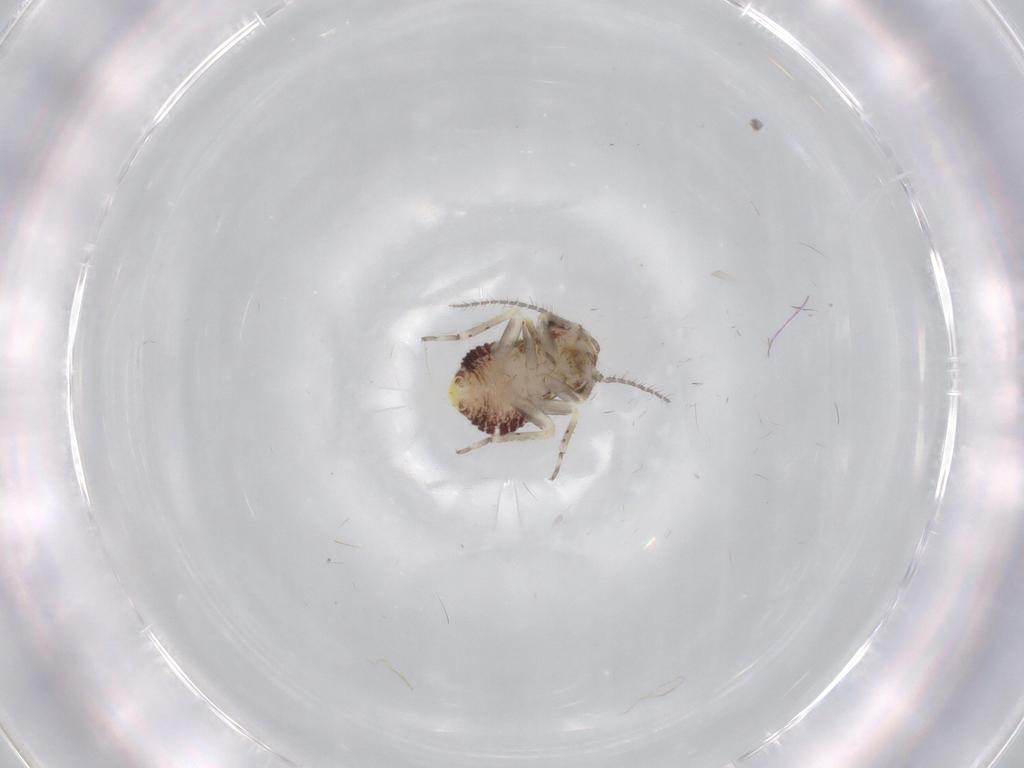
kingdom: Animalia
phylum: Arthropoda
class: Insecta
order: Psocodea
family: Psocidae
